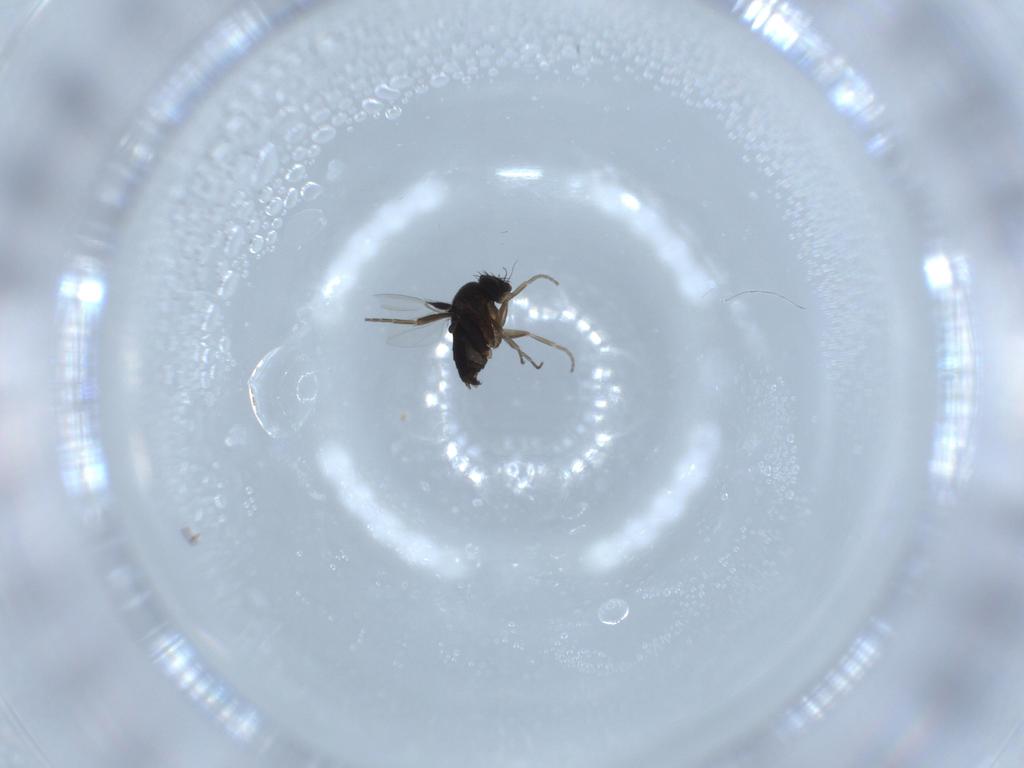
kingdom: Animalia
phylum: Arthropoda
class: Insecta
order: Diptera
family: Phoridae
